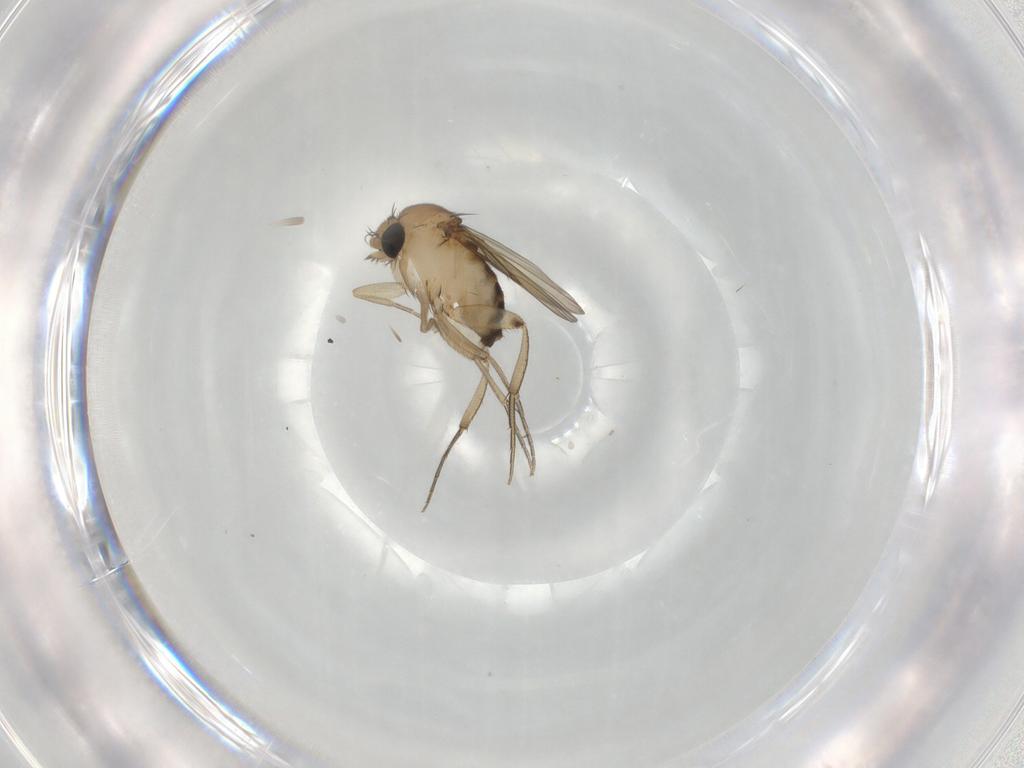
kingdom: Animalia
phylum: Arthropoda
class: Insecta
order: Diptera
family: Phoridae
